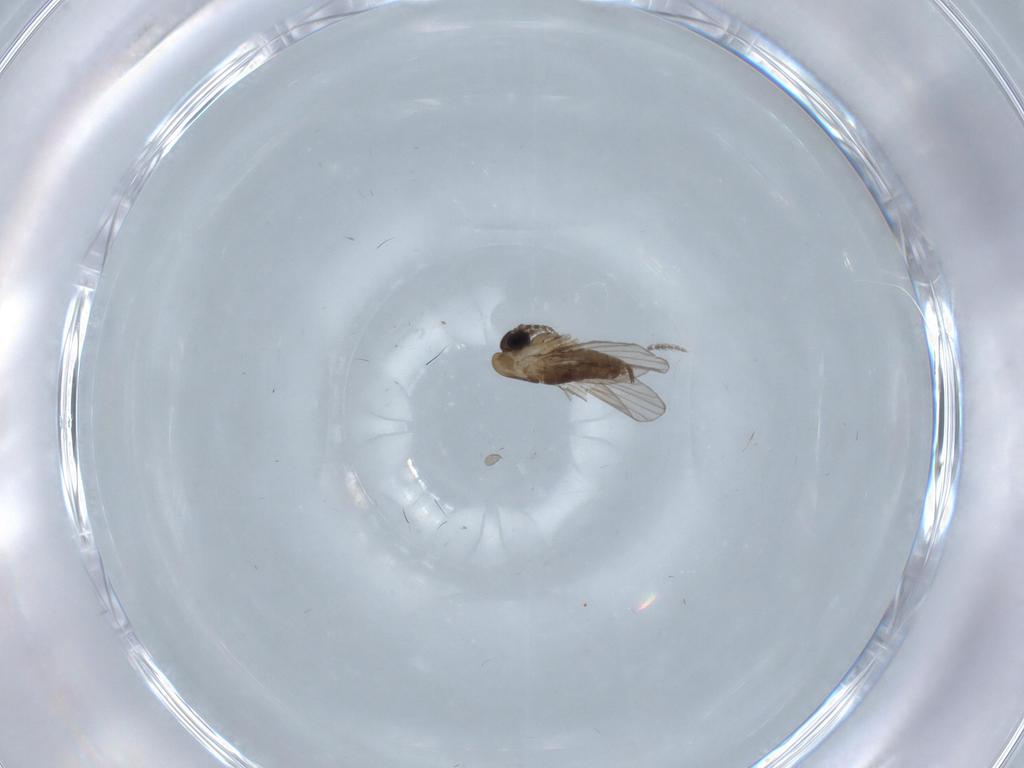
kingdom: Animalia
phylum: Arthropoda
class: Insecta
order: Diptera
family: Psychodidae
